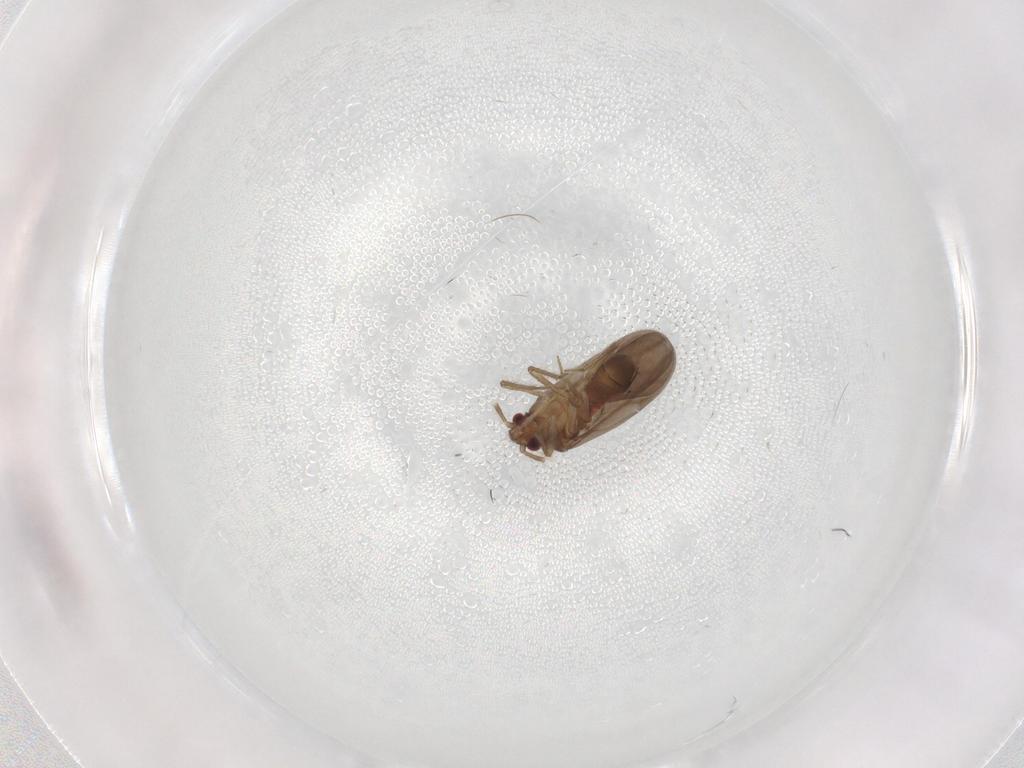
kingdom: Animalia
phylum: Arthropoda
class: Insecta
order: Hemiptera
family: Ceratocombidae
